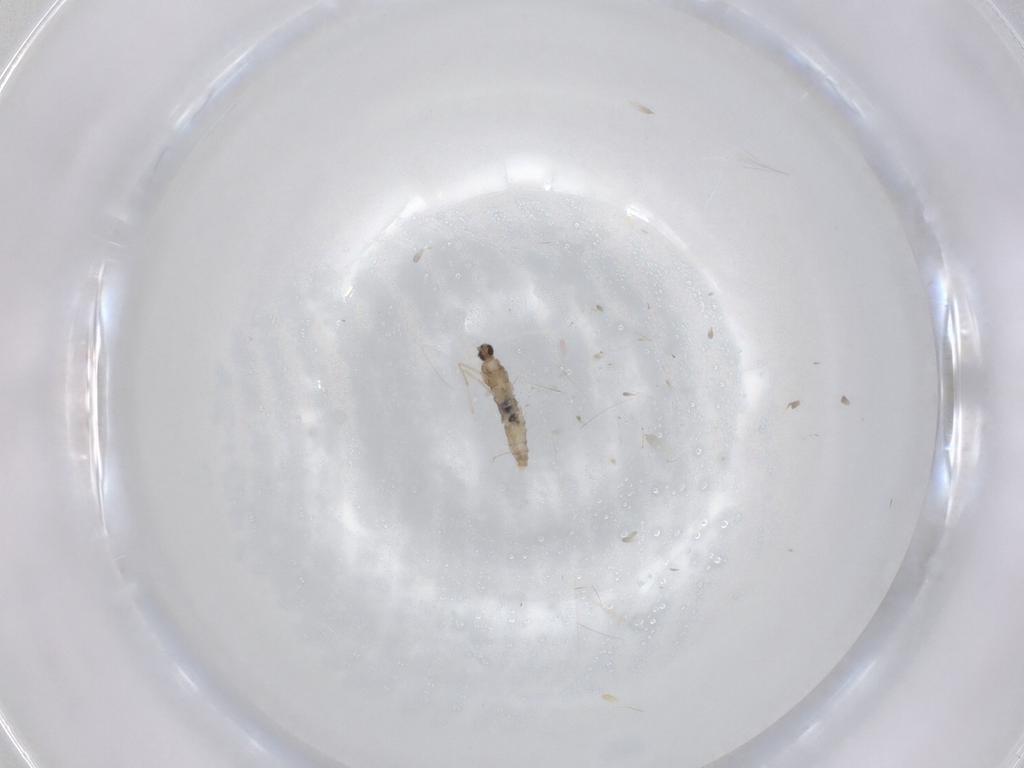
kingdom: Animalia
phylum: Arthropoda
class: Insecta
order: Diptera
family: Cecidomyiidae
